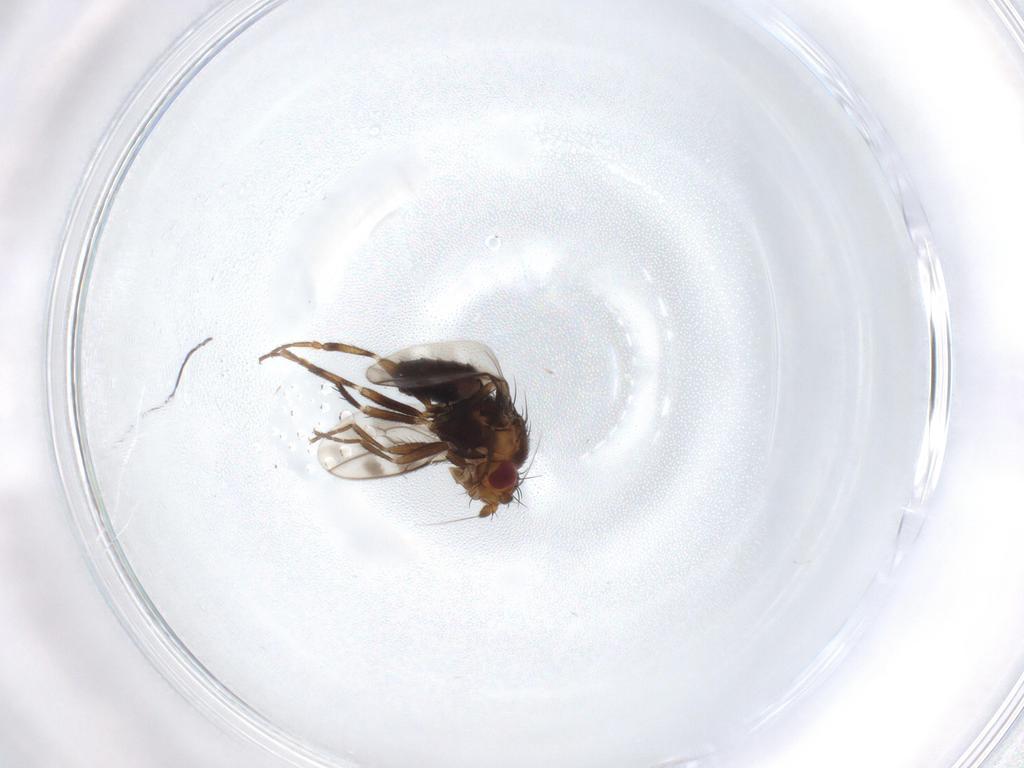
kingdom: Animalia
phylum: Arthropoda
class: Insecta
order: Diptera
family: Sphaeroceridae
